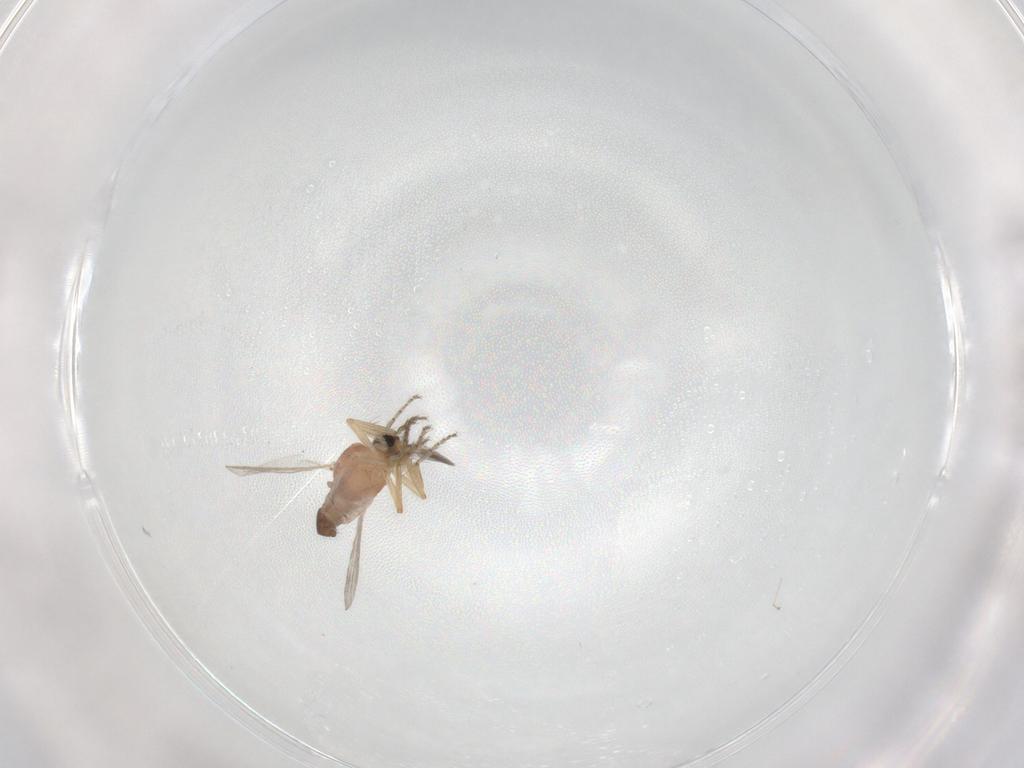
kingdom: Animalia
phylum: Arthropoda
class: Insecta
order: Diptera
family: Ceratopogonidae
